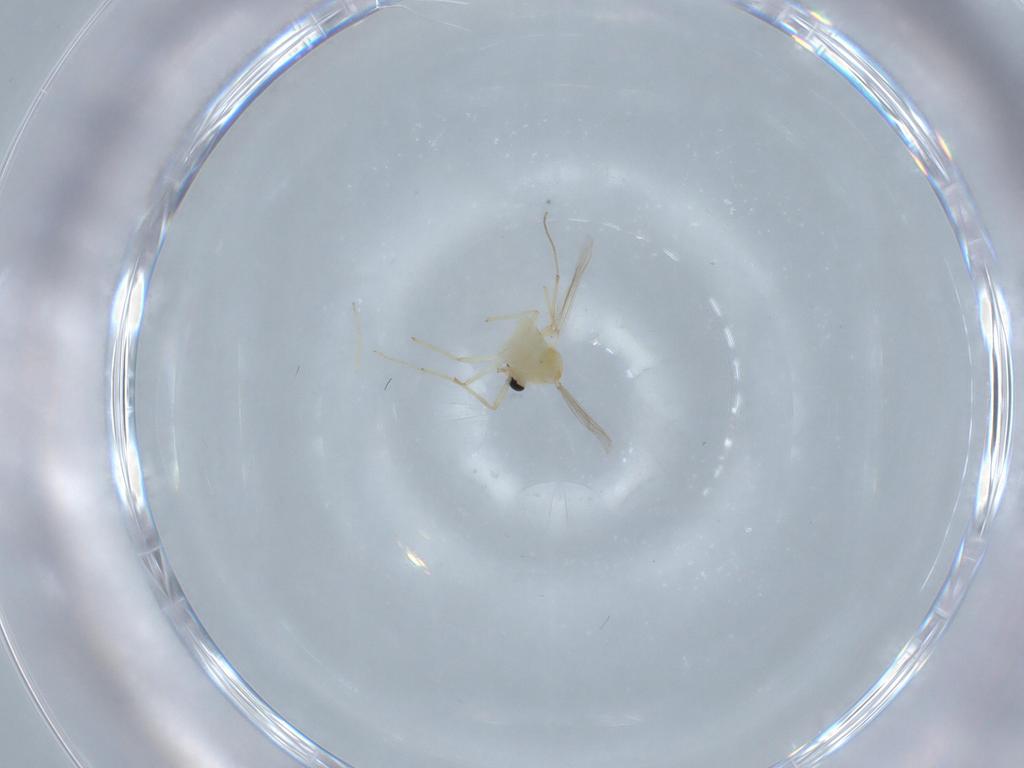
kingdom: Animalia
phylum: Arthropoda
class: Insecta
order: Diptera
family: Chironomidae
